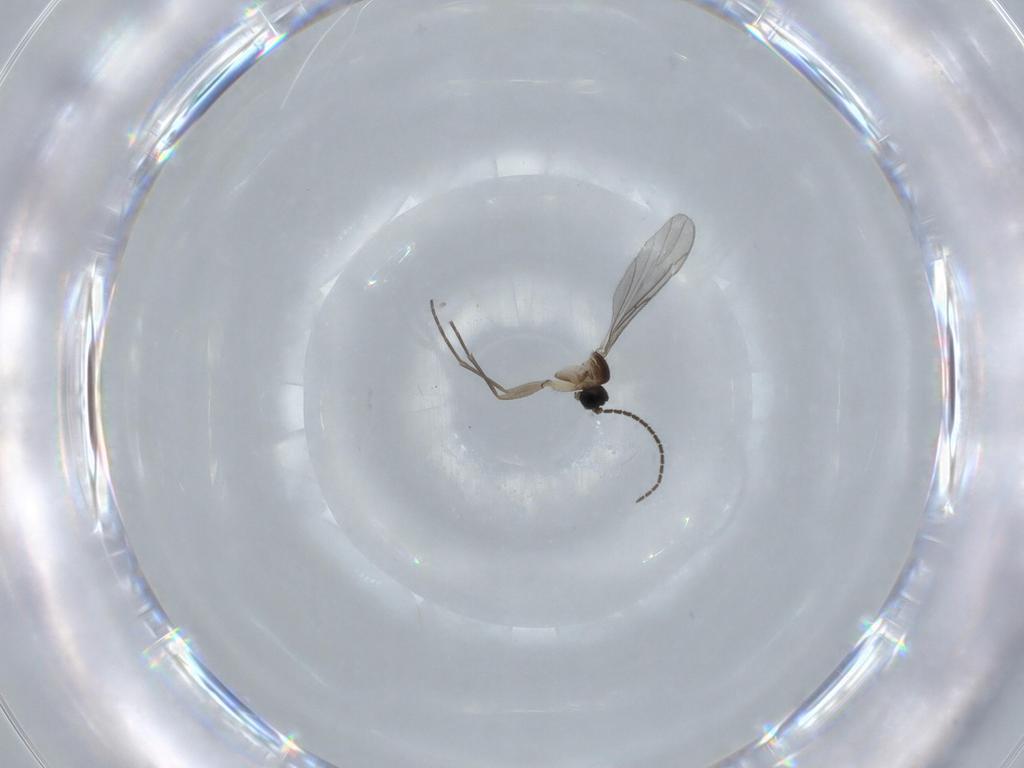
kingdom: Animalia
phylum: Arthropoda
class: Insecta
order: Diptera
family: Sciaridae
